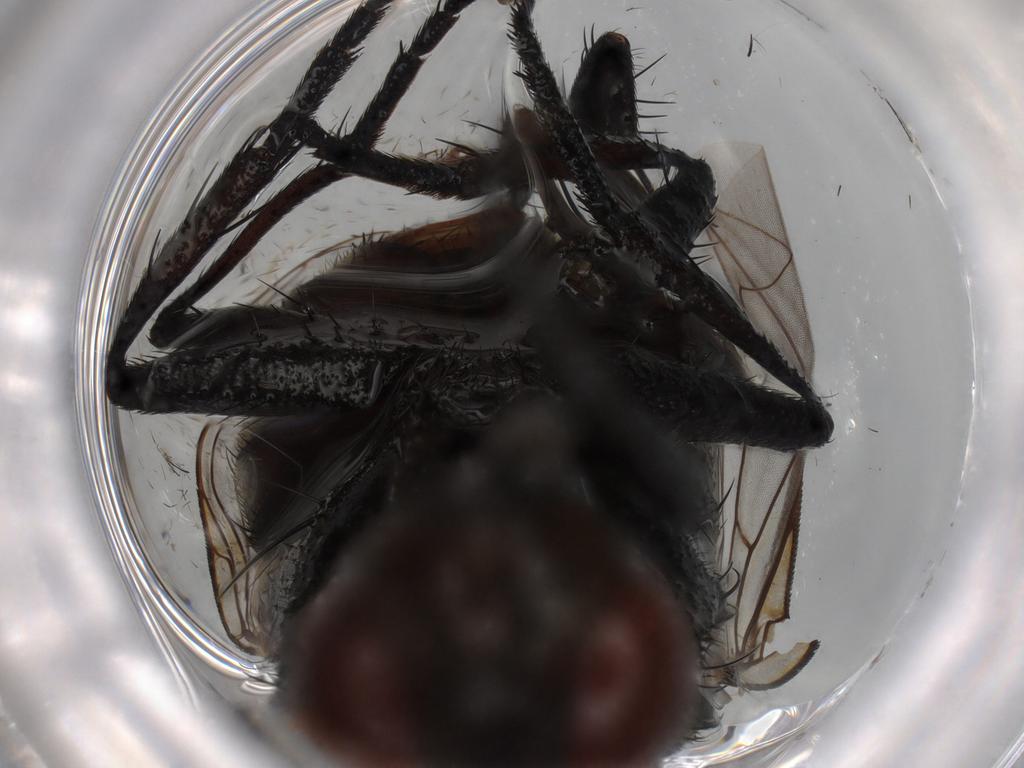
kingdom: Animalia
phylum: Arthropoda
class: Insecta
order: Diptera
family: Sarcophagidae
